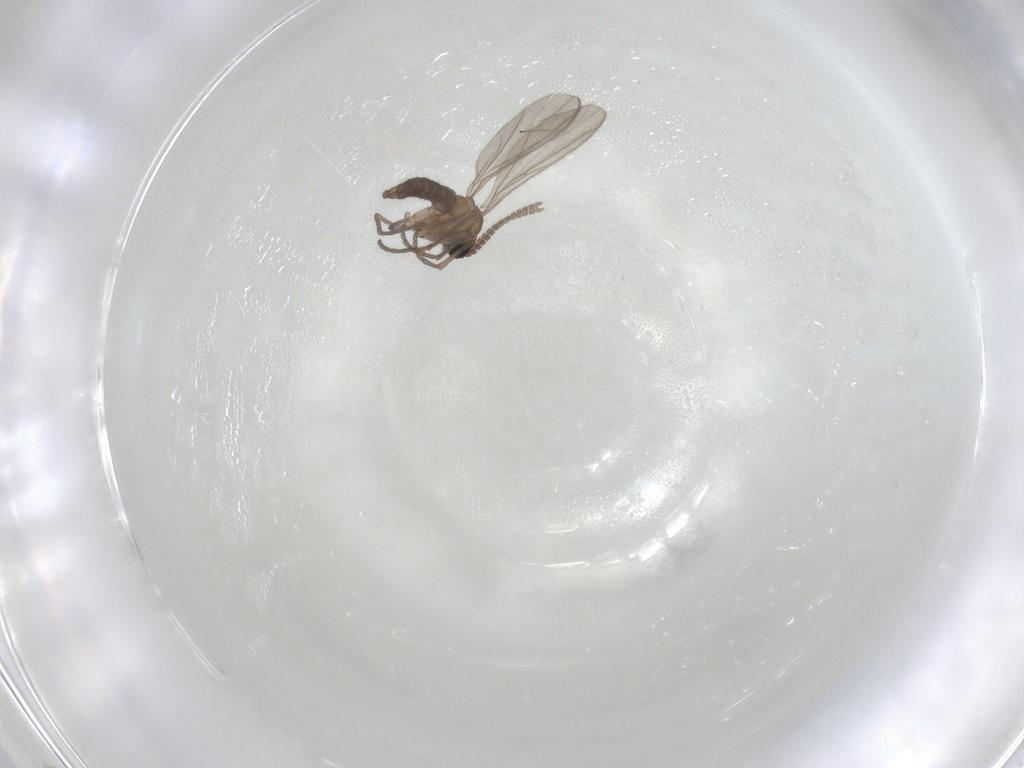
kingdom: Animalia
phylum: Arthropoda
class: Insecta
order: Diptera
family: Sciaridae
